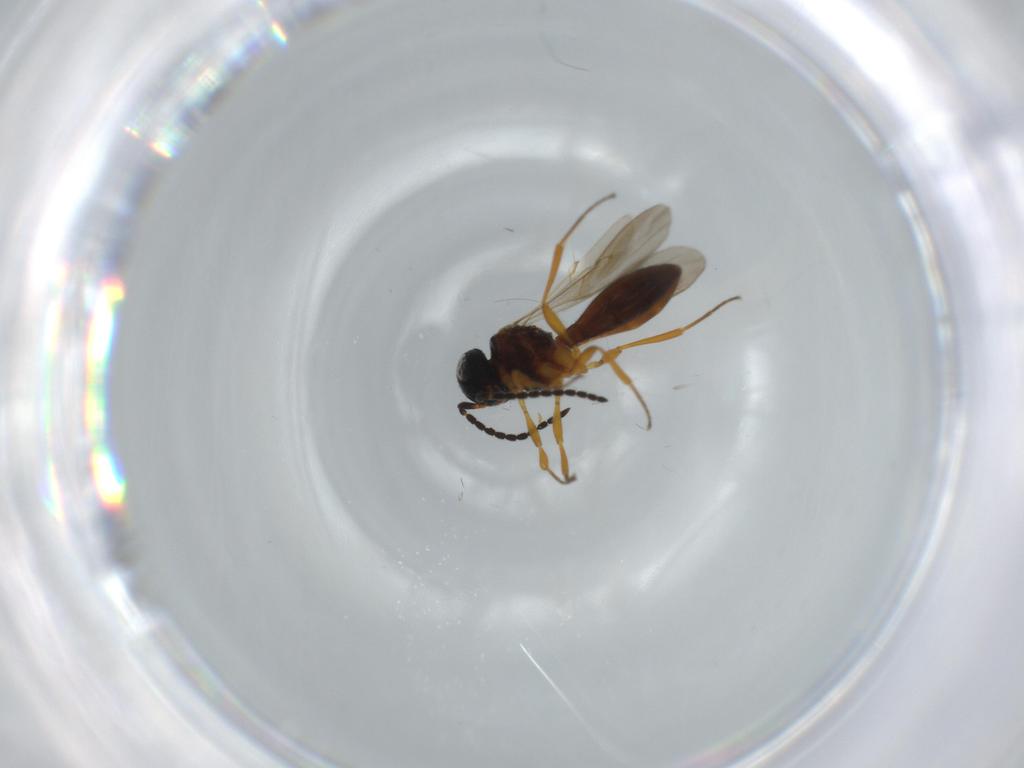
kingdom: Animalia
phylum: Arthropoda
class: Insecta
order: Hymenoptera
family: Scelionidae
